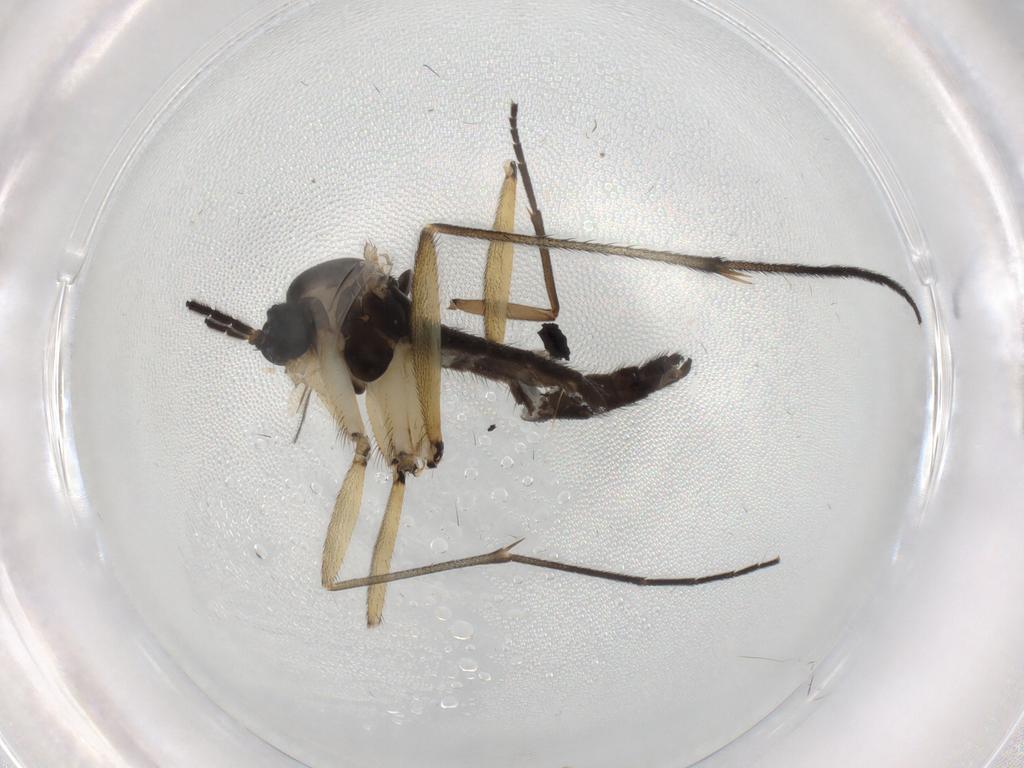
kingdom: Animalia
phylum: Arthropoda
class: Insecta
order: Diptera
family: Sciaridae
